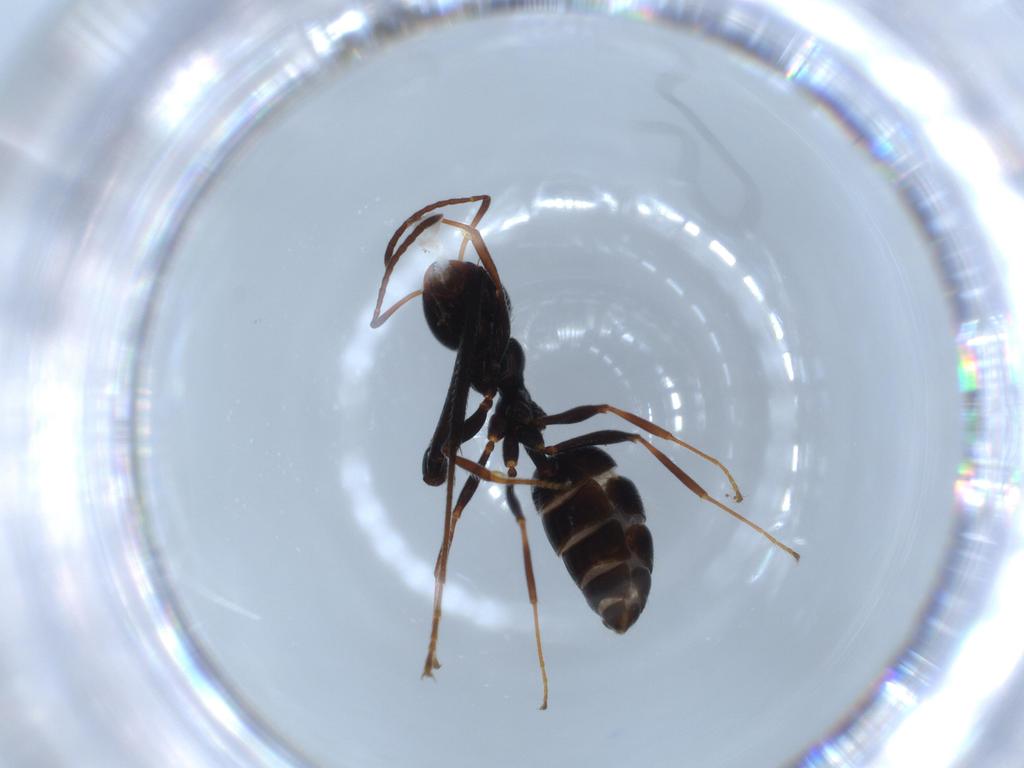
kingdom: Animalia
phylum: Arthropoda
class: Insecta
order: Hymenoptera
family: Formicidae
